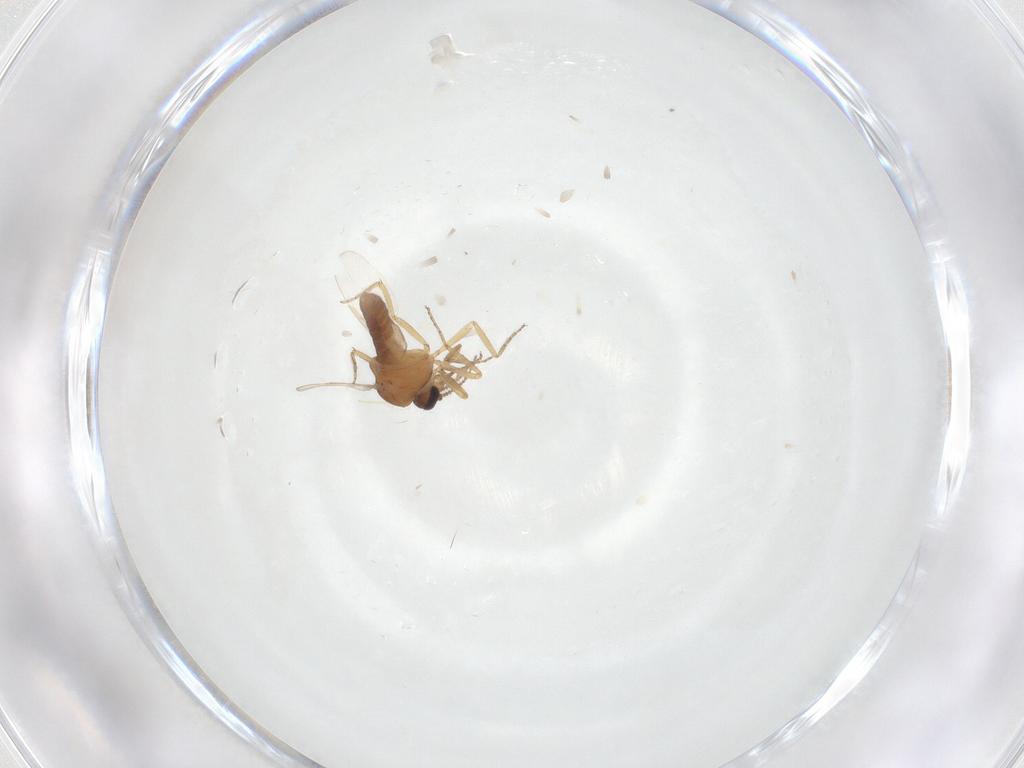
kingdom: Animalia
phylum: Arthropoda
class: Insecta
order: Diptera
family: Ceratopogonidae
